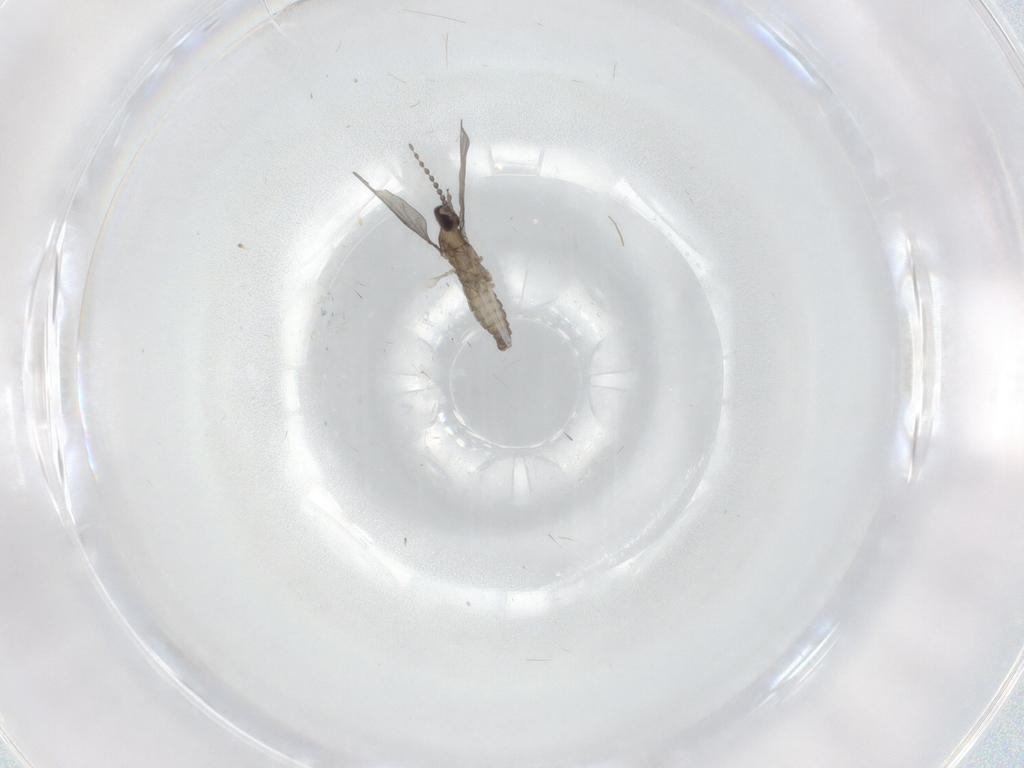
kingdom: Animalia
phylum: Arthropoda
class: Insecta
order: Diptera
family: Cecidomyiidae
